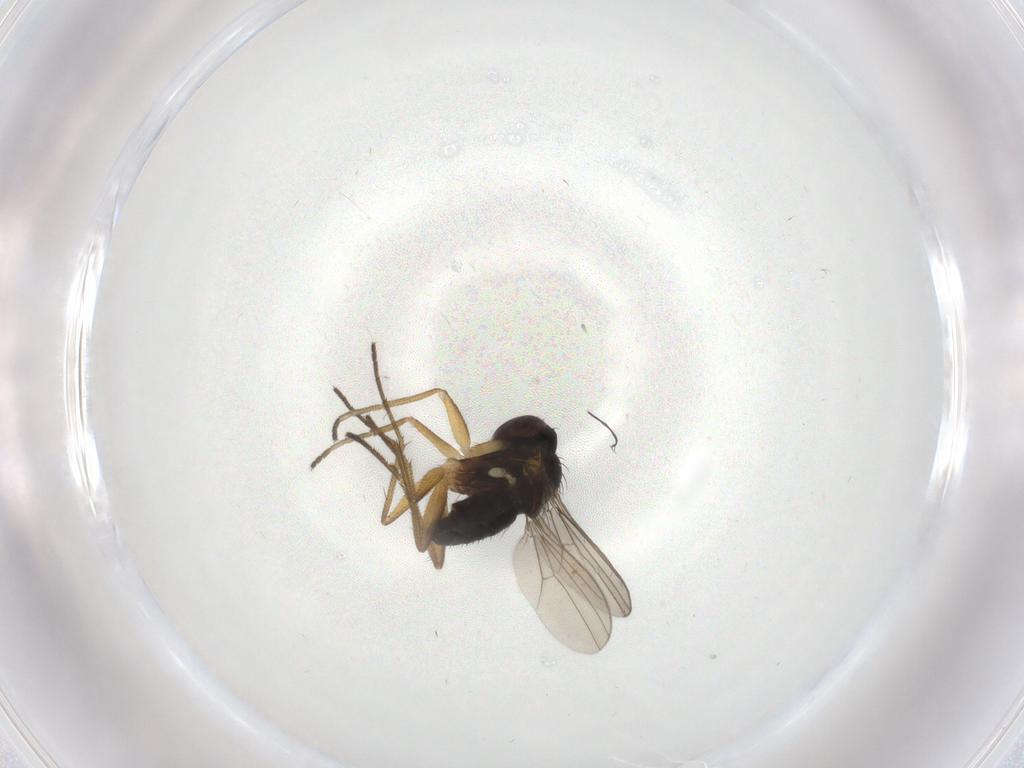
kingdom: Animalia
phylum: Arthropoda
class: Insecta
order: Diptera
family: Dolichopodidae
